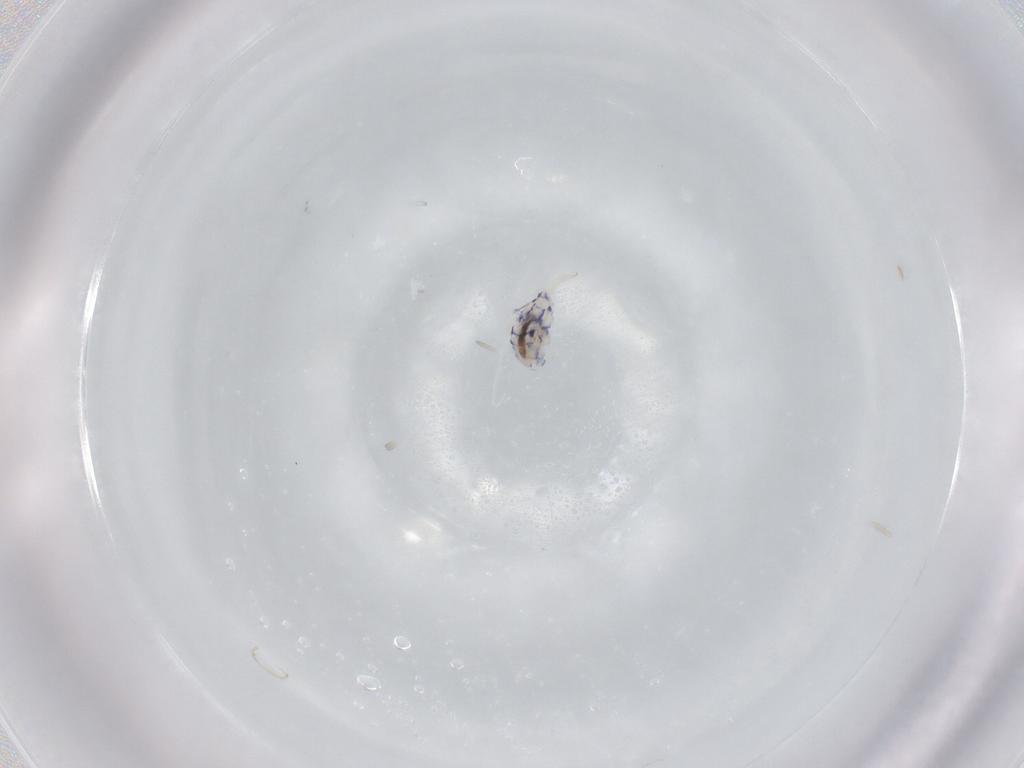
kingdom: Animalia
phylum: Arthropoda
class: Collembola
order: Entomobryomorpha
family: Entomobryidae
